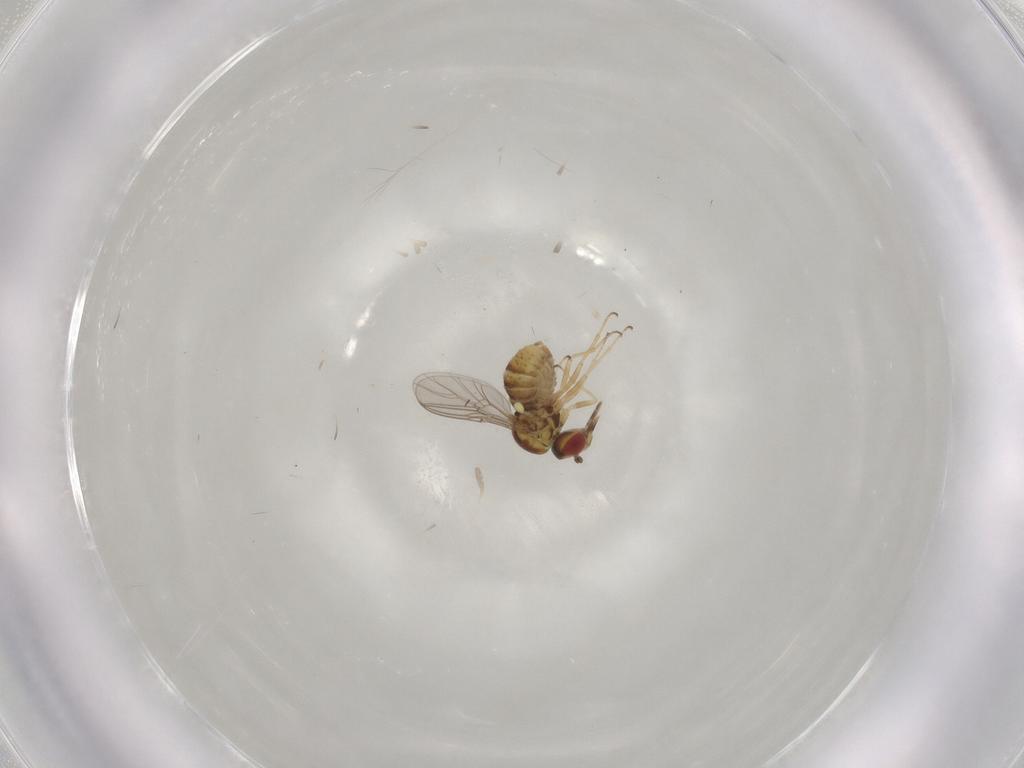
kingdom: Animalia
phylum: Arthropoda
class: Insecta
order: Diptera
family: Mythicomyiidae
